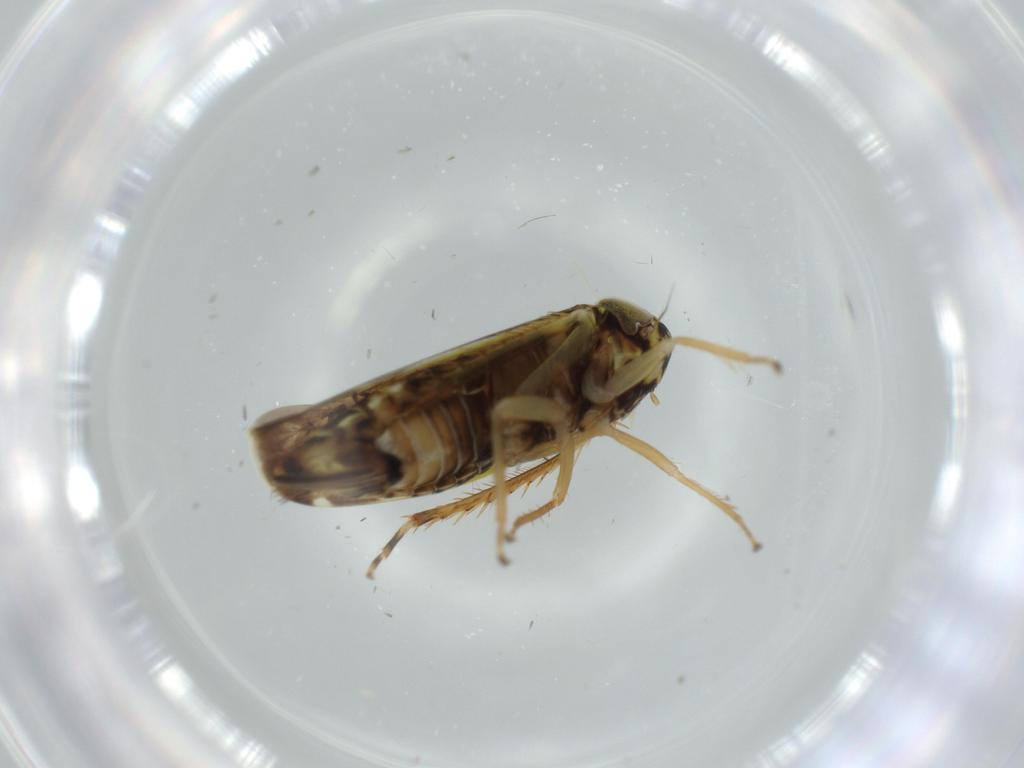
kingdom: Animalia
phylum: Arthropoda
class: Insecta
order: Hemiptera
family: Cicadellidae
